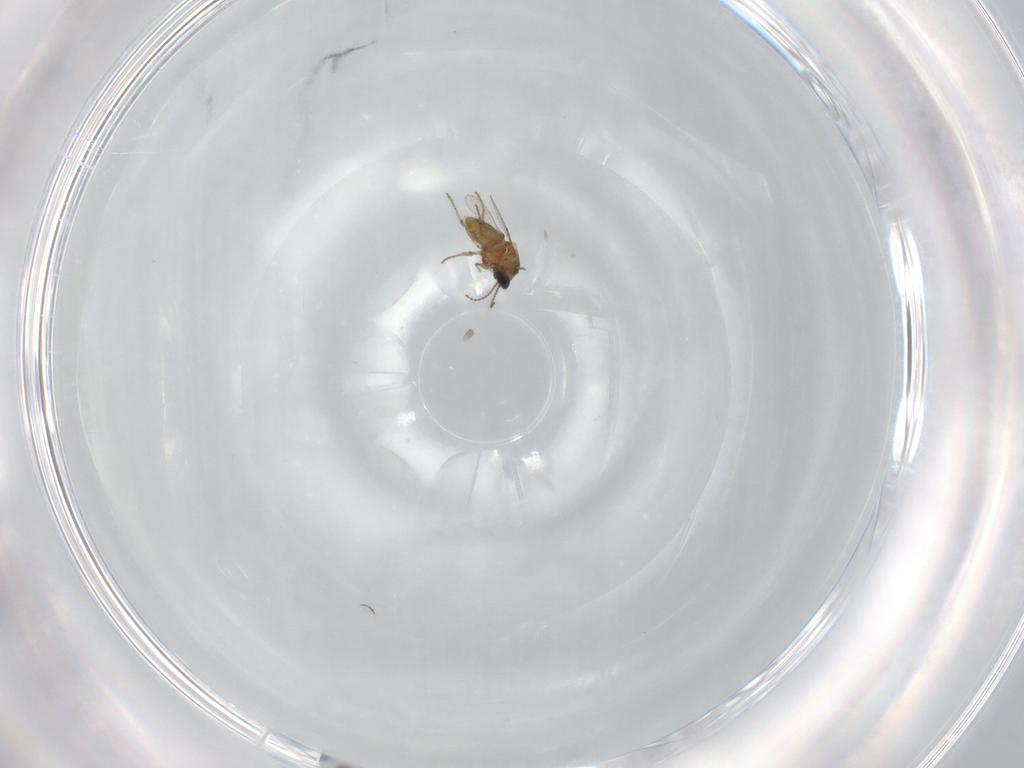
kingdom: Animalia
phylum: Arthropoda
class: Insecta
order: Diptera
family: Ceratopogonidae
